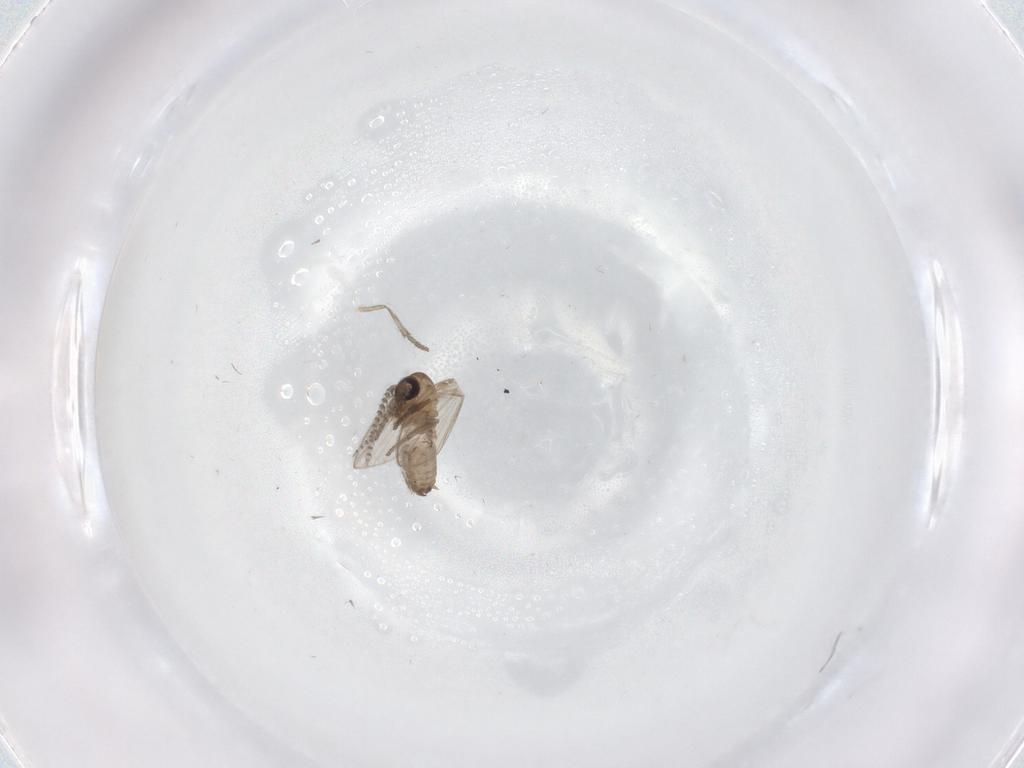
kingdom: Animalia
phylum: Arthropoda
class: Insecta
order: Diptera
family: Psychodidae
